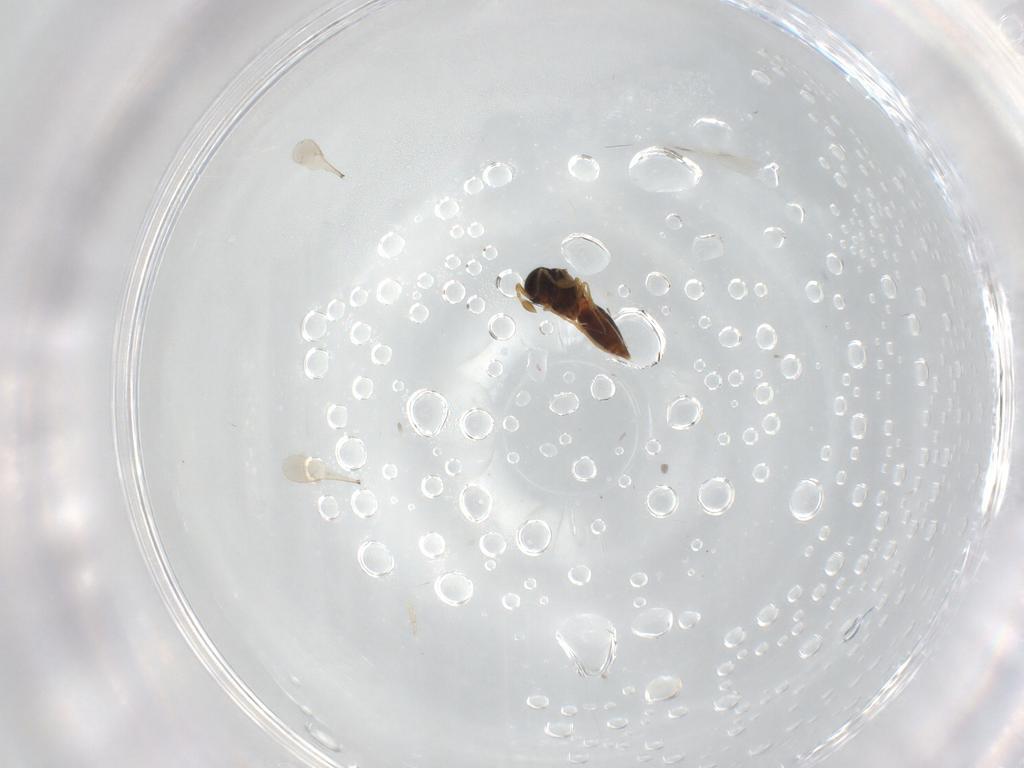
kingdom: Animalia
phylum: Arthropoda
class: Insecta
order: Hymenoptera
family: Scelionidae
